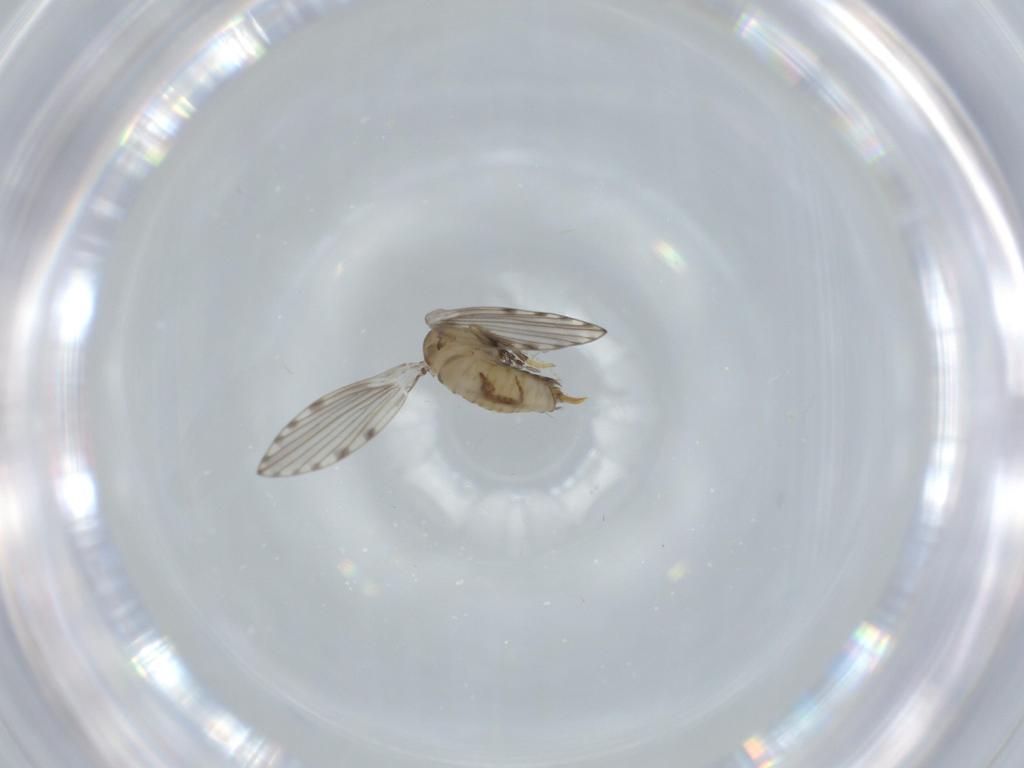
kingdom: Animalia
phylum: Arthropoda
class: Insecta
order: Diptera
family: Phoridae
